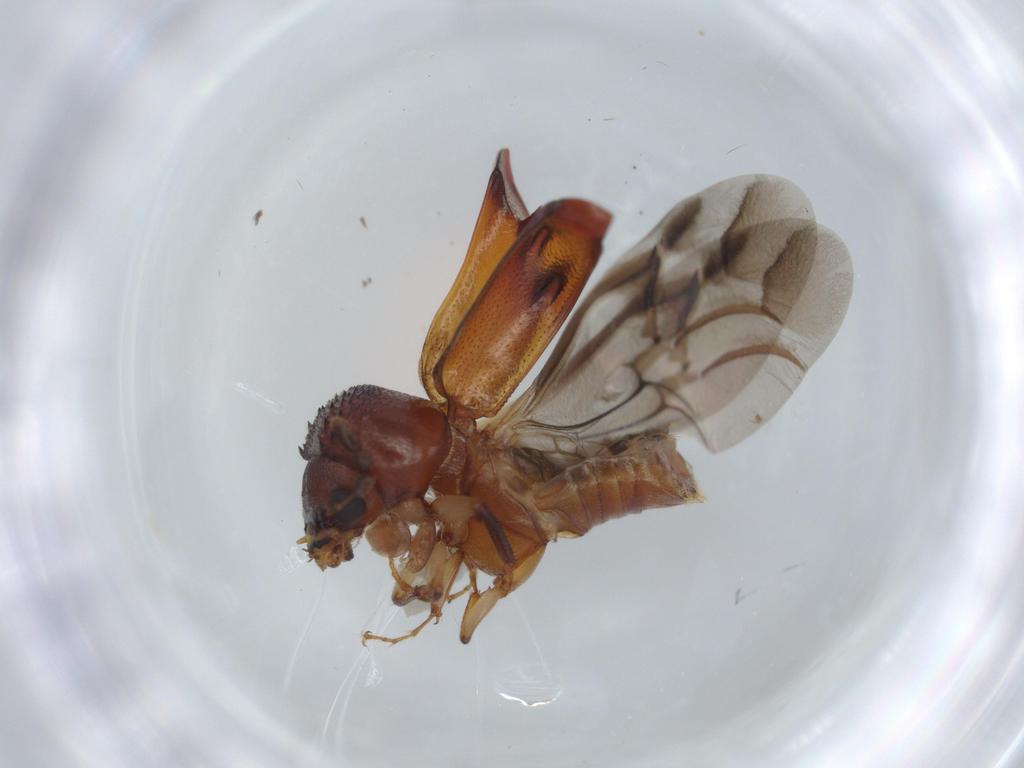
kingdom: Animalia
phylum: Arthropoda
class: Insecta
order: Coleoptera
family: Bostrichidae
